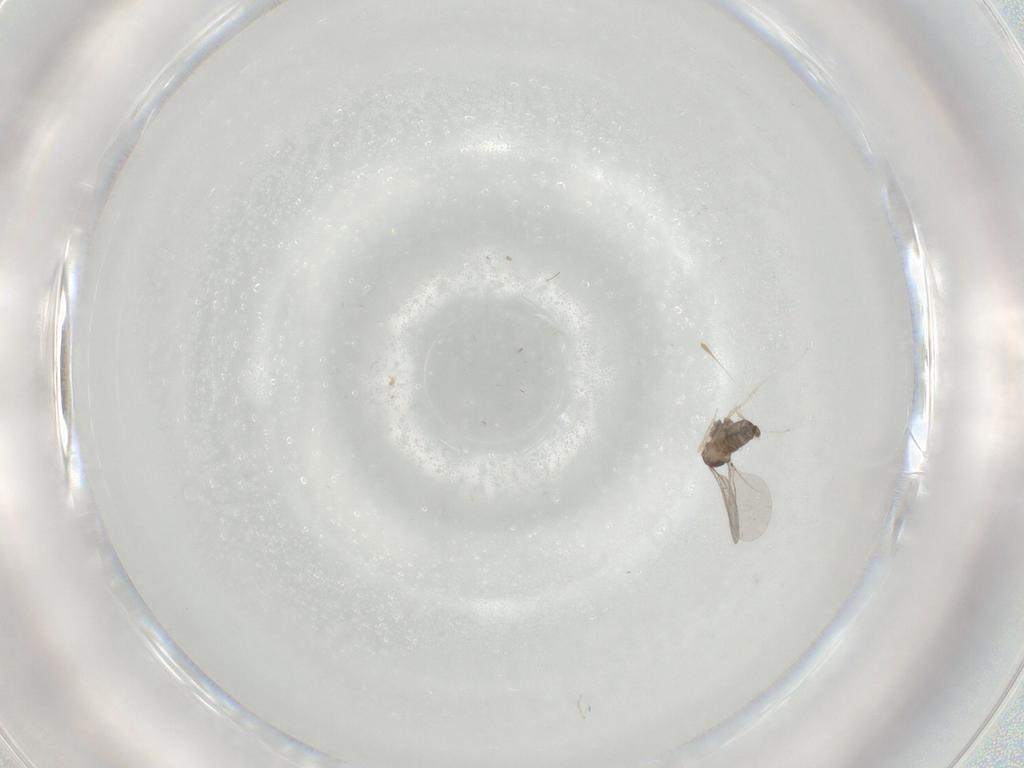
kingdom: Animalia
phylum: Arthropoda
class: Insecta
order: Diptera
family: Cecidomyiidae
